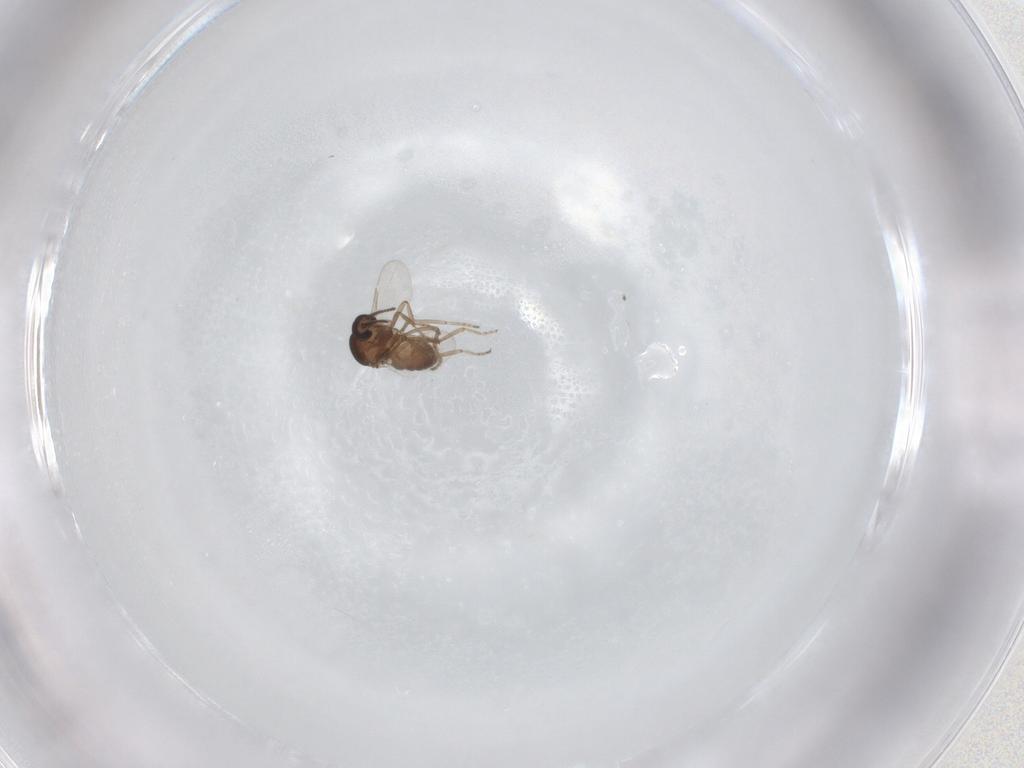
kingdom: Animalia
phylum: Arthropoda
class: Insecta
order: Diptera
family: Ceratopogonidae
